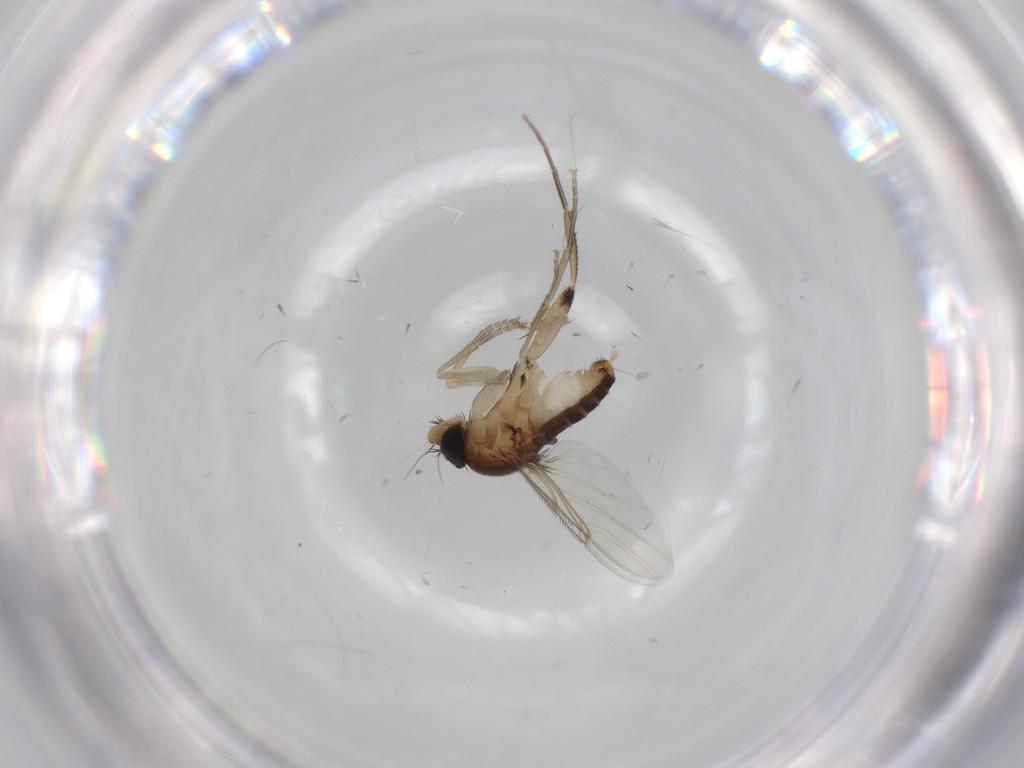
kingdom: Animalia
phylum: Arthropoda
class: Insecta
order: Diptera
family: Phoridae
